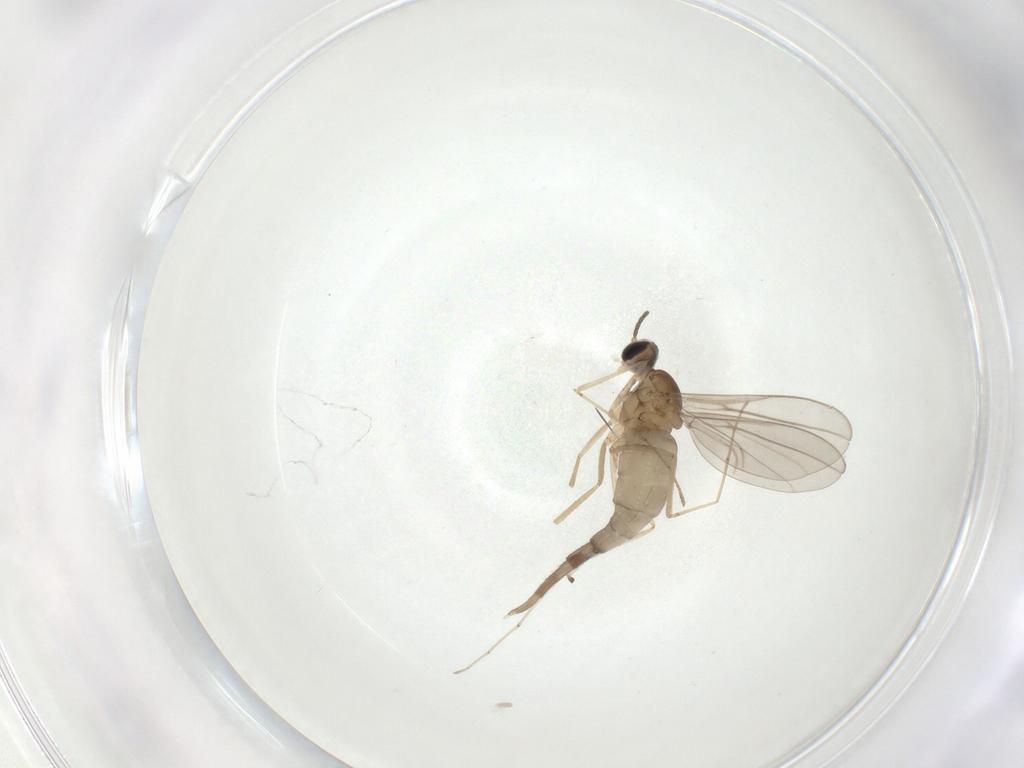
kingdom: Animalia
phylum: Arthropoda
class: Insecta
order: Diptera
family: Cecidomyiidae
